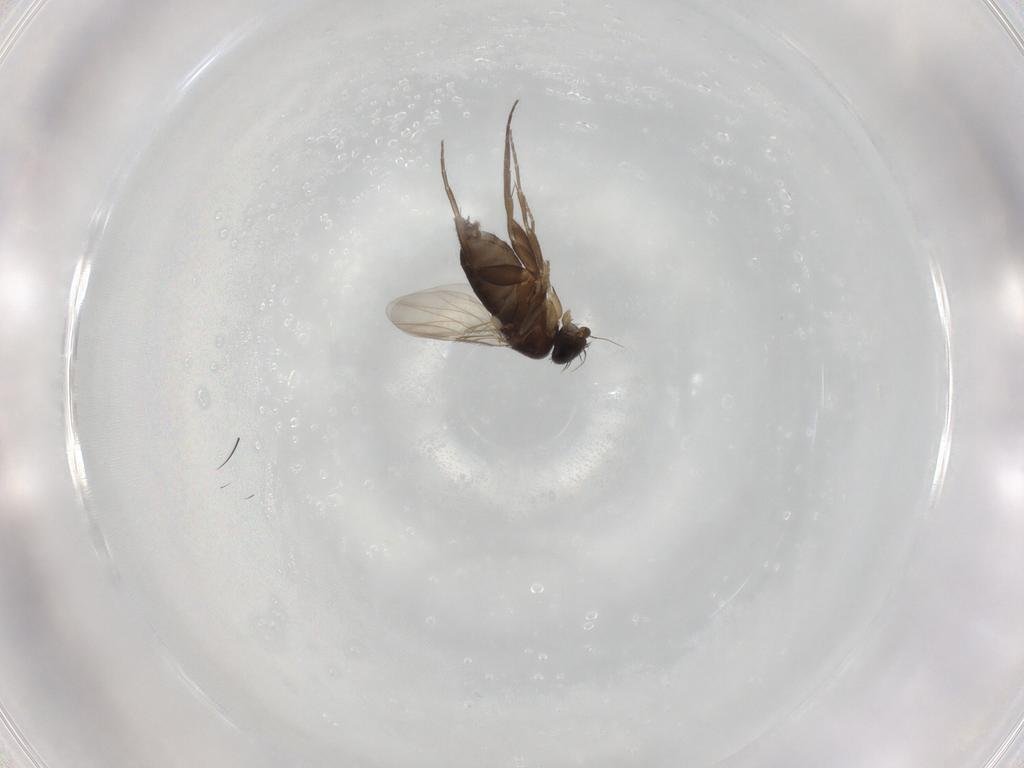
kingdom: Animalia
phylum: Arthropoda
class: Insecta
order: Diptera
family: Phoridae
